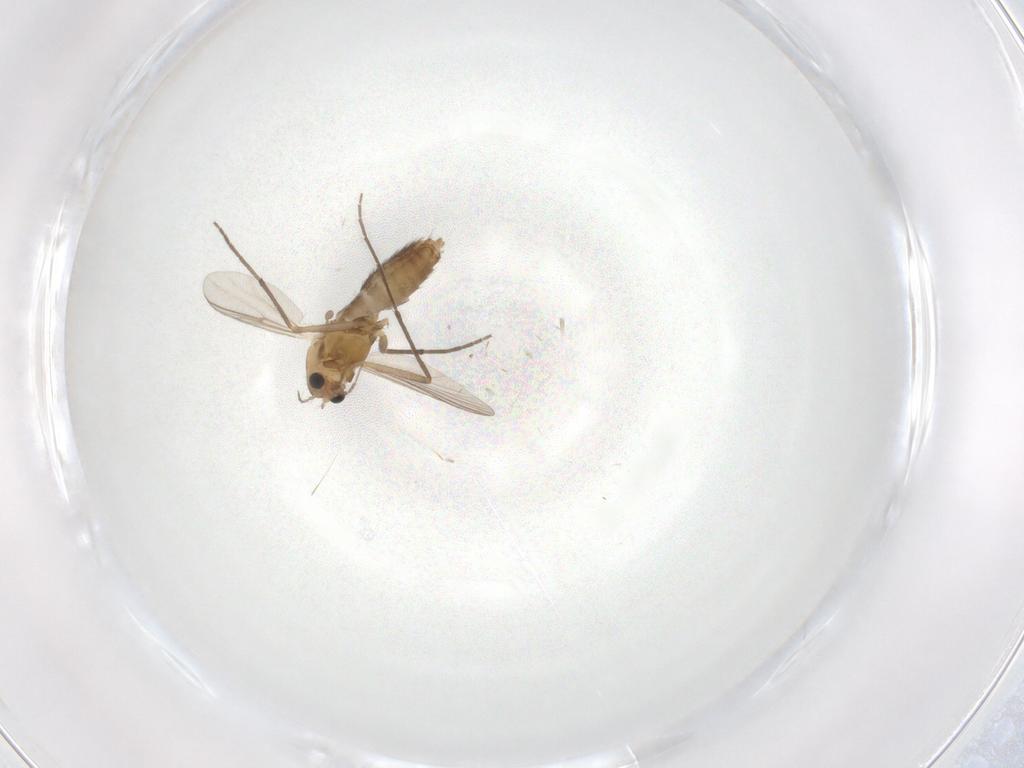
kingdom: Animalia
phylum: Arthropoda
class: Insecta
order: Diptera
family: Chironomidae
